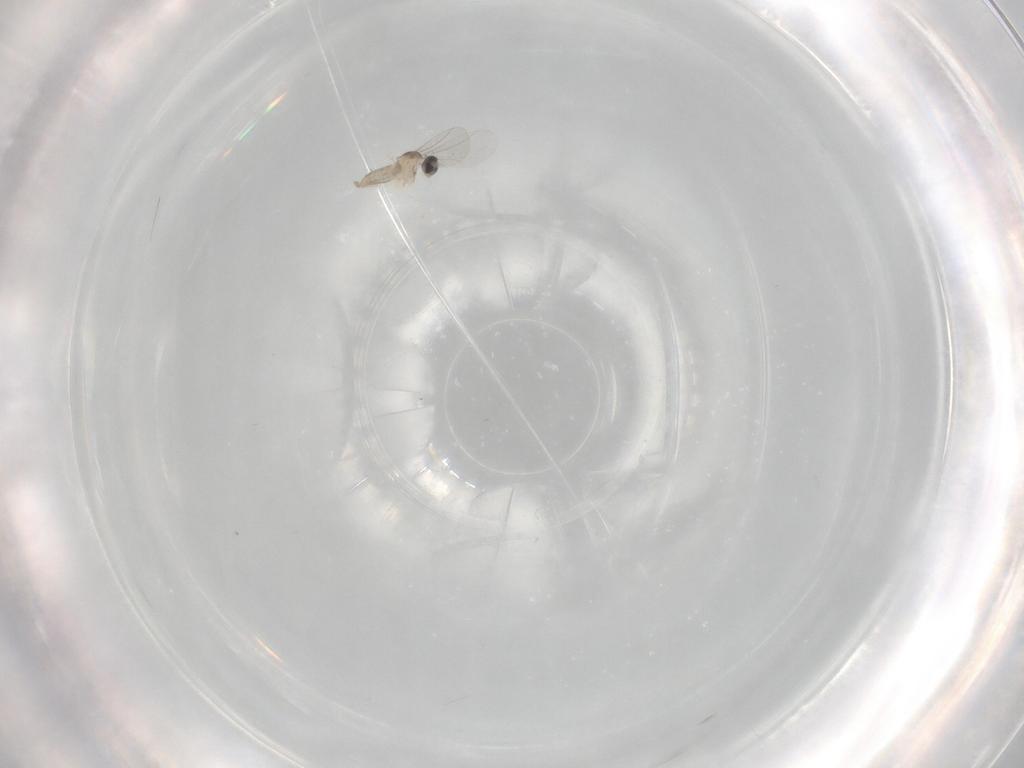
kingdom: Animalia
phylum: Arthropoda
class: Insecta
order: Diptera
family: Cecidomyiidae
